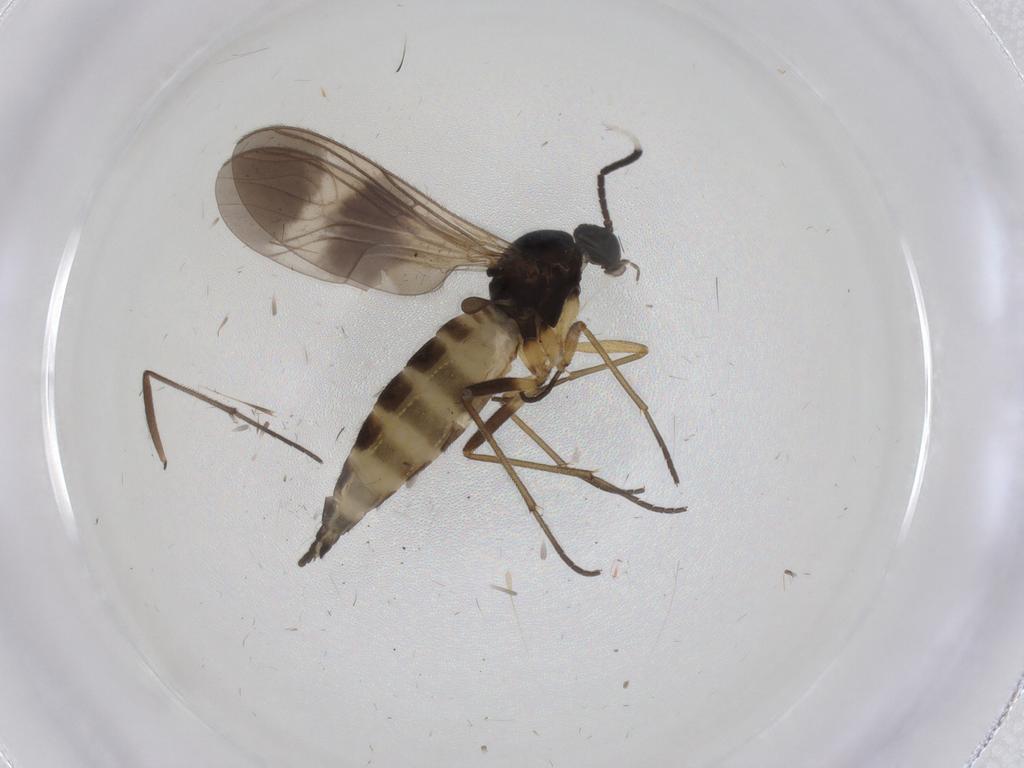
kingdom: Animalia
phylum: Arthropoda
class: Insecta
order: Diptera
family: Sciaridae
